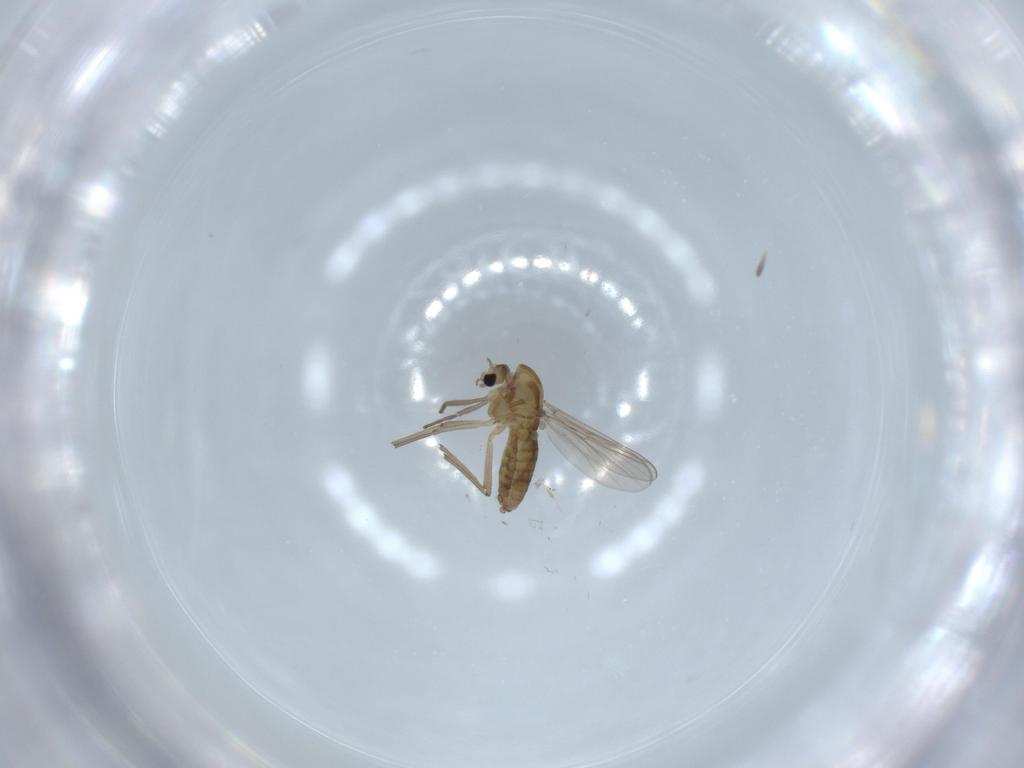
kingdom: Animalia
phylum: Arthropoda
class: Insecta
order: Diptera
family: Chironomidae
